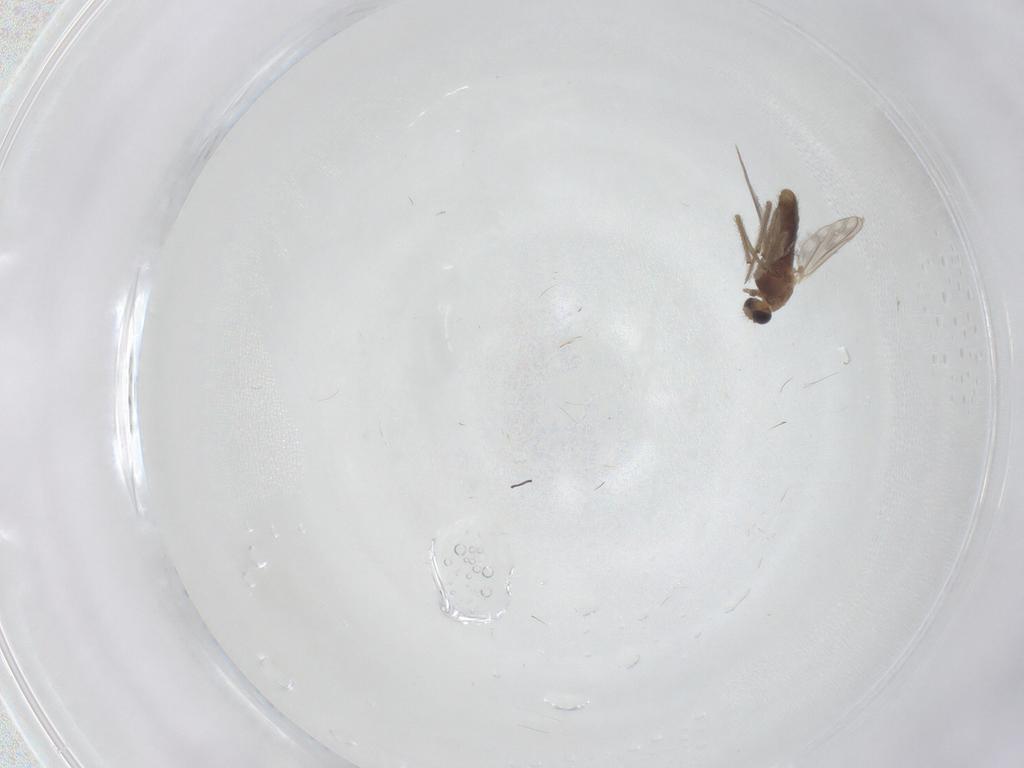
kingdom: Animalia
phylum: Arthropoda
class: Insecta
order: Diptera
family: Chironomidae
